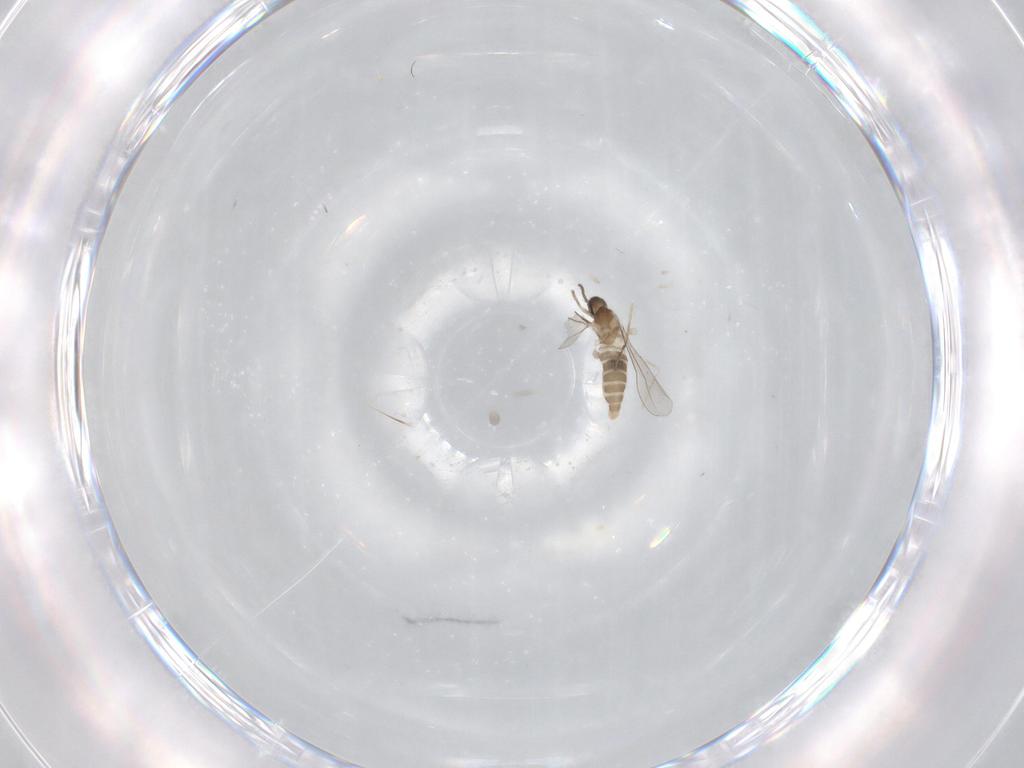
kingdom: Animalia
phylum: Arthropoda
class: Insecta
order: Diptera
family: Cecidomyiidae
